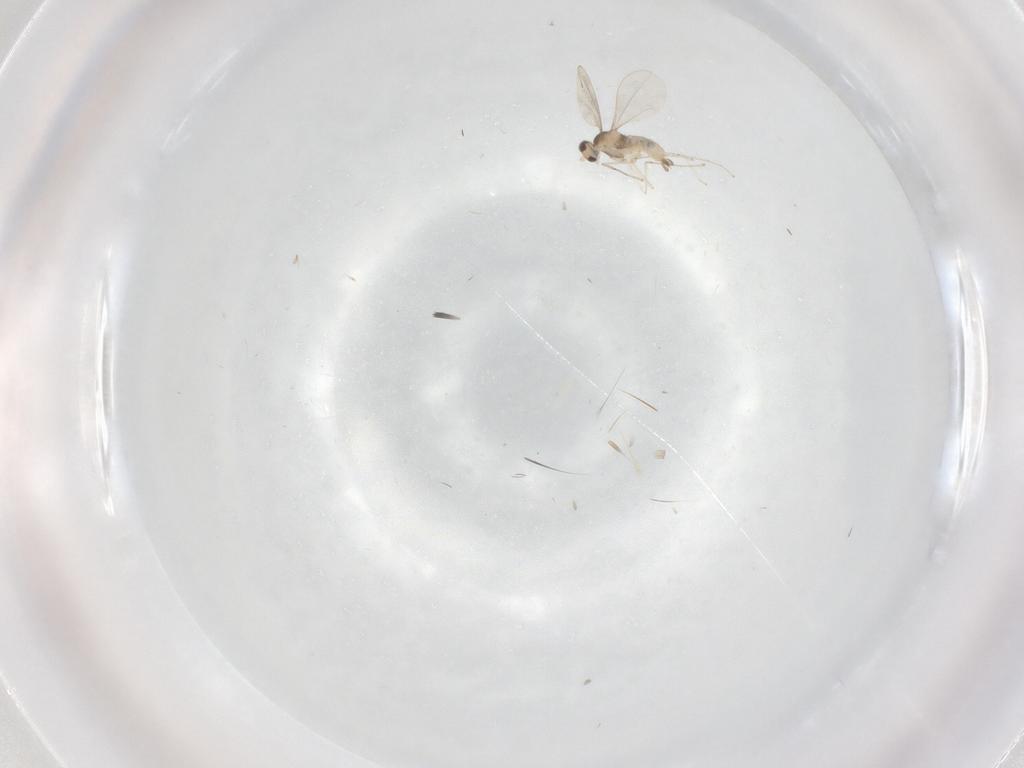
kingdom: Animalia
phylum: Arthropoda
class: Insecta
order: Diptera
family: Cecidomyiidae
